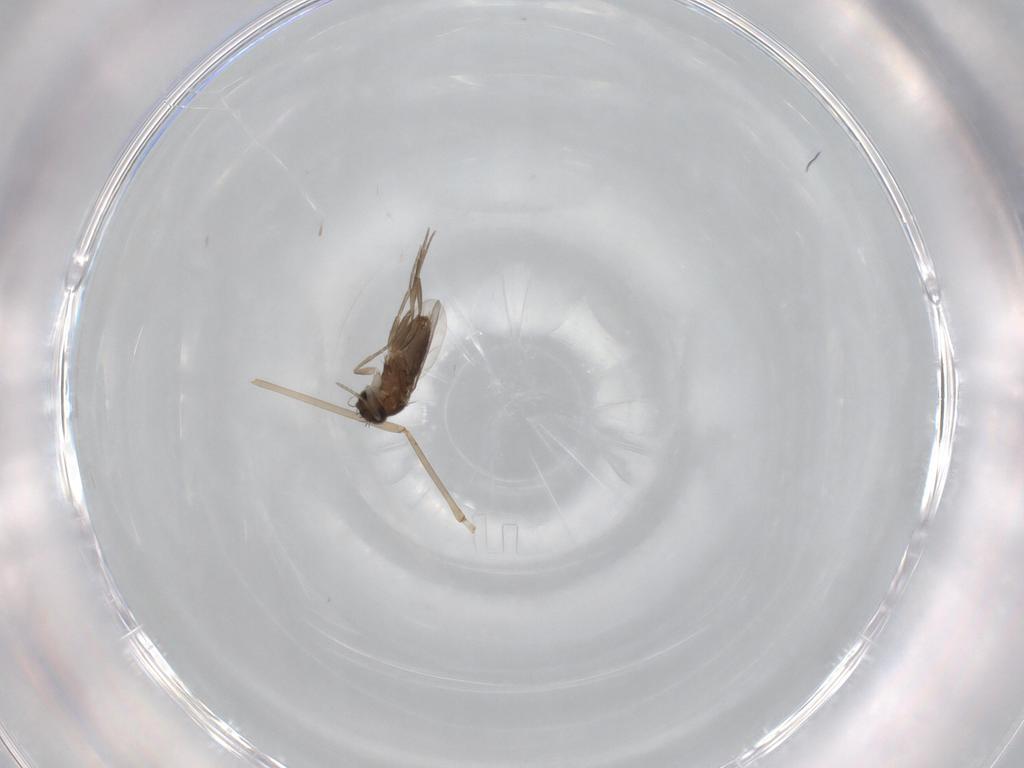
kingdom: Animalia
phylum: Arthropoda
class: Insecta
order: Diptera
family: Phoridae
